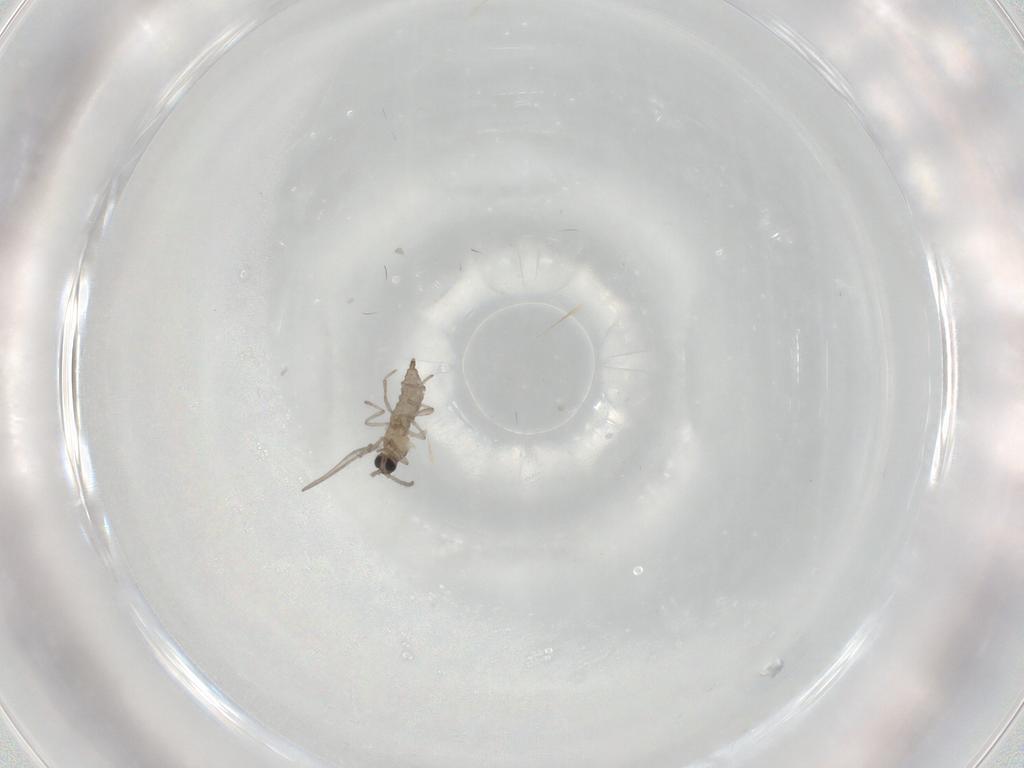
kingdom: Animalia
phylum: Arthropoda
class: Insecta
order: Diptera
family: Cecidomyiidae
